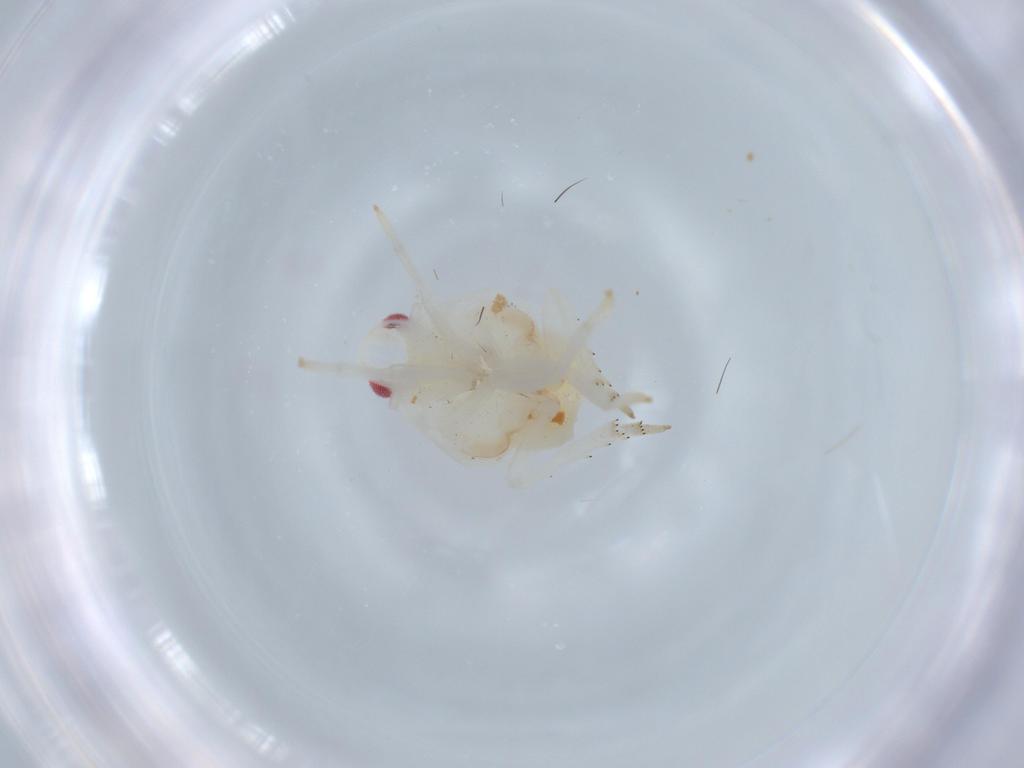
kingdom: Animalia
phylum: Arthropoda
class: Insecta
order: Hemiptera
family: Flatidae
